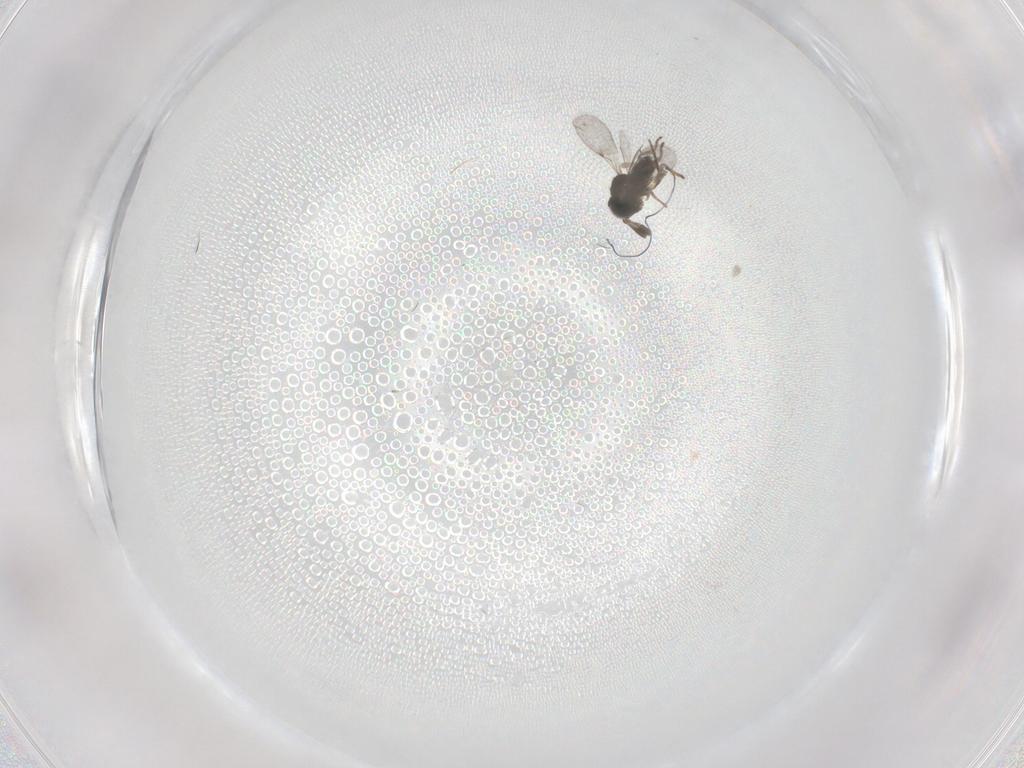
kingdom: Animalia
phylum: Arthropoda
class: Insecta
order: Hymenoptera
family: Encyrtidae
